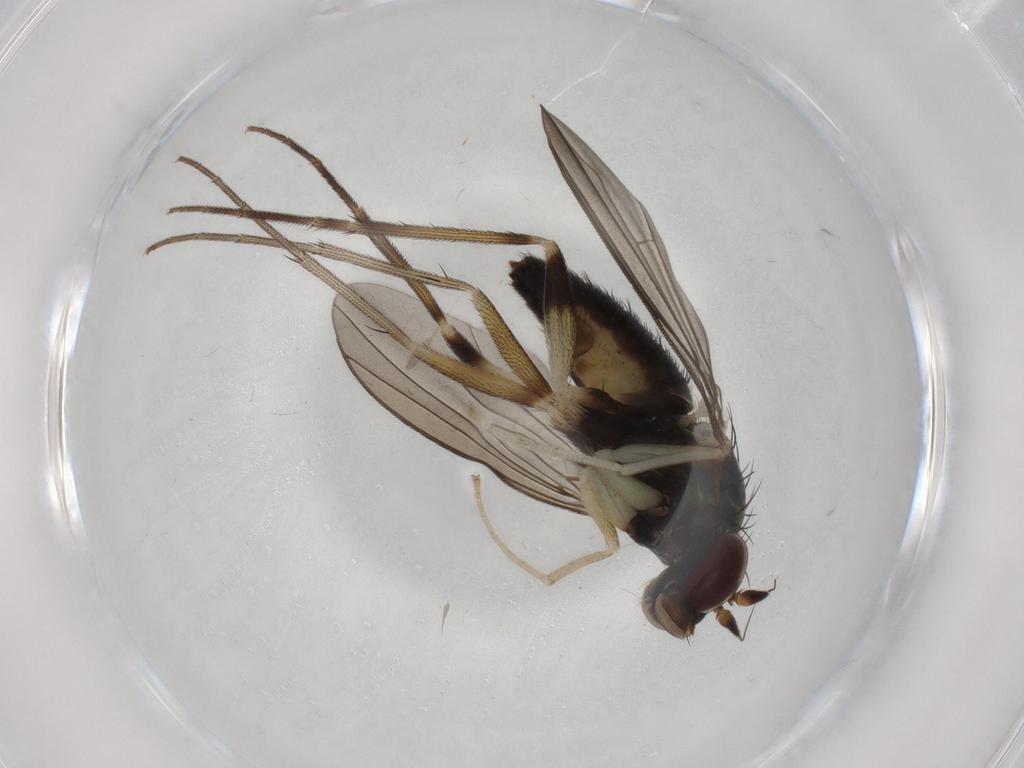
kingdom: Animalia
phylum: Arthropoda
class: Insecta
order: Diptera
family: Dolichopodidae
